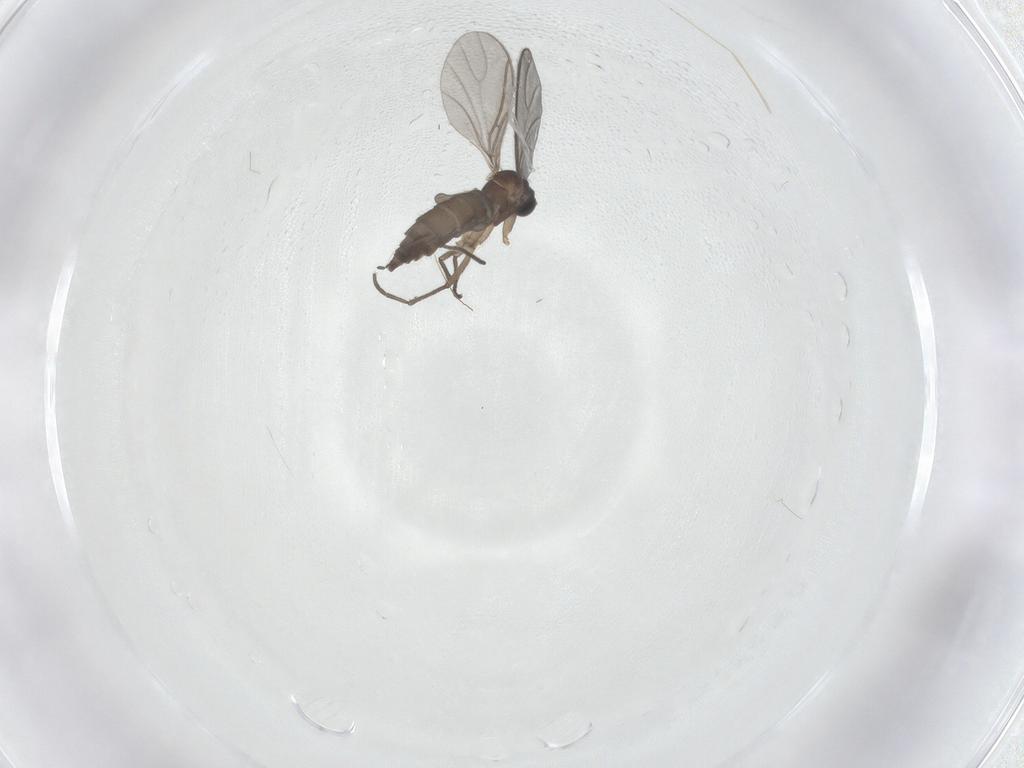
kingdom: Animalia
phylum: Arthropoda
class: Insecta
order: Diptera
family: Sciaridae
